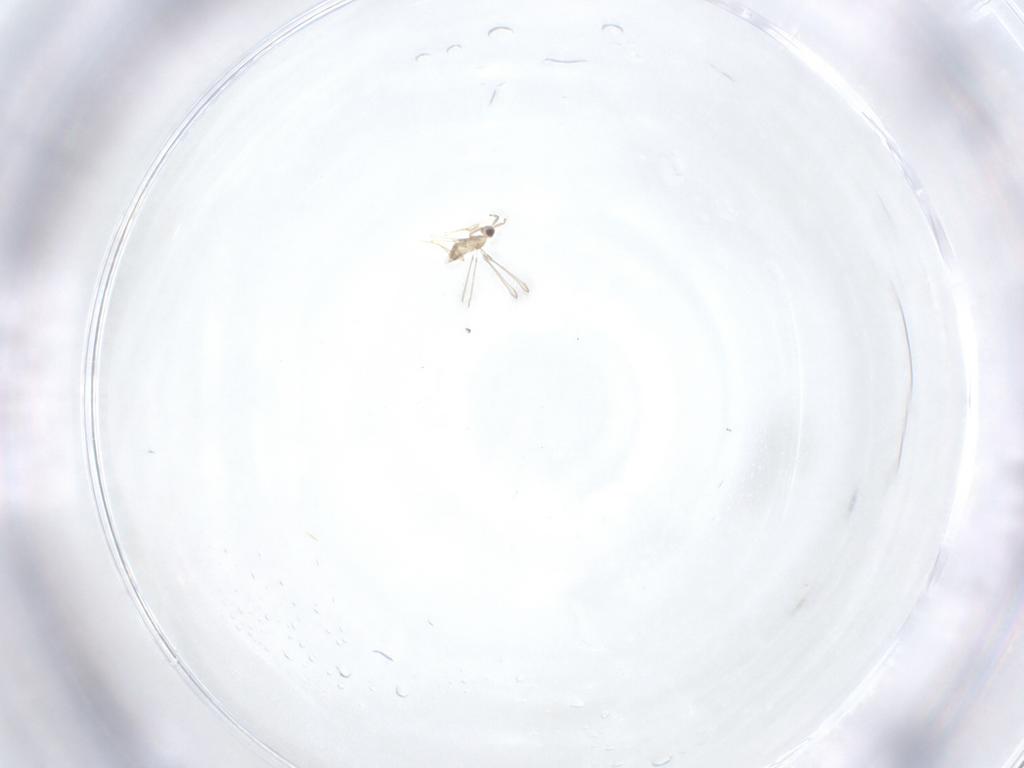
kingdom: Animalia
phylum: Arthropoda
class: Insecta
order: Hymenoptera
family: Mymaridae
